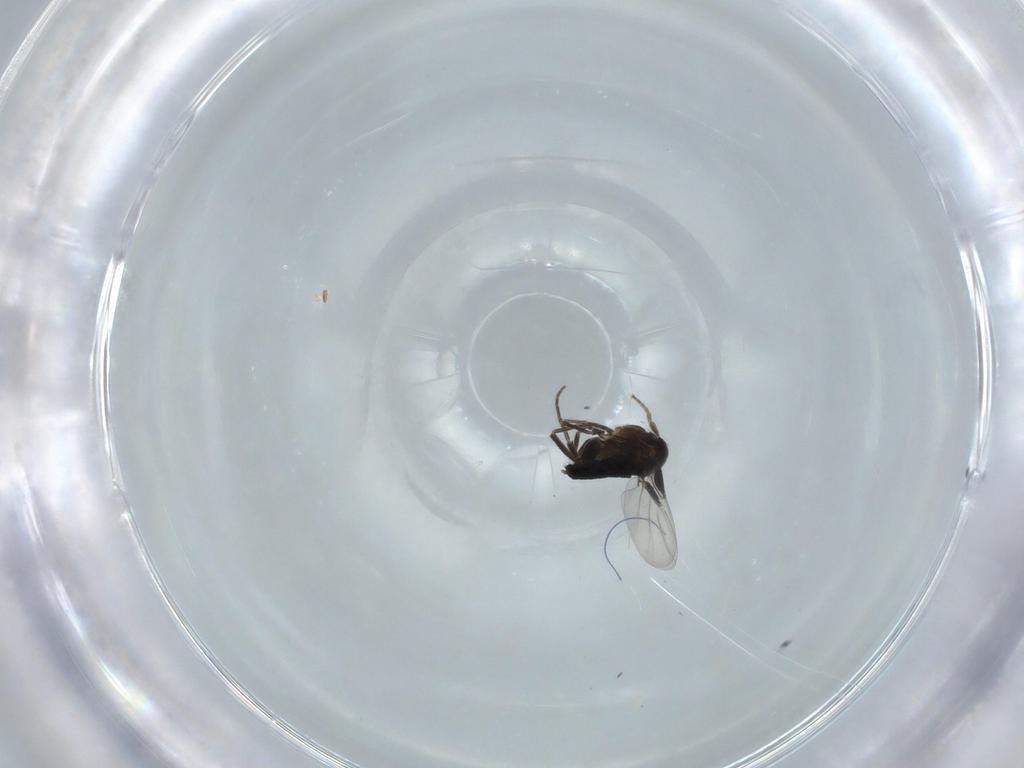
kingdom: Animalia
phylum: Arthropoda
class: Insecta
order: Diptera
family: Phoridae
